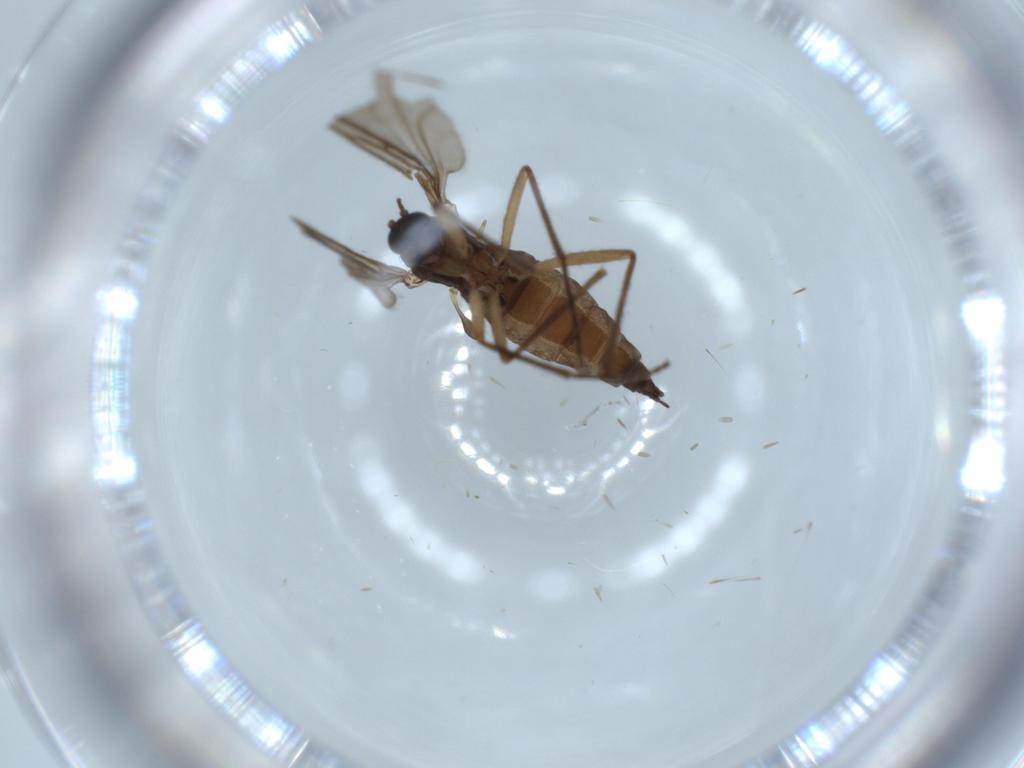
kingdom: Animalia
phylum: Arthropoda
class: Insecta
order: Diptera
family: Sciaridae
